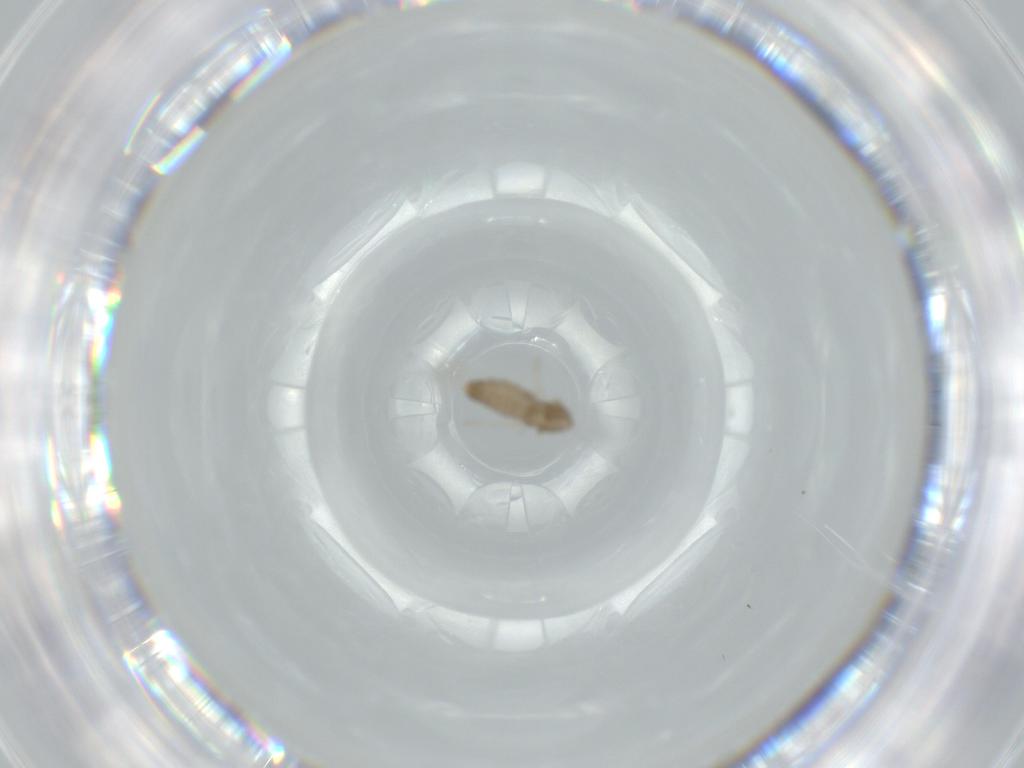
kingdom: Animalia
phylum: Arthropoda
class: Insecta
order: Diptera
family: Cecidomyiidae
